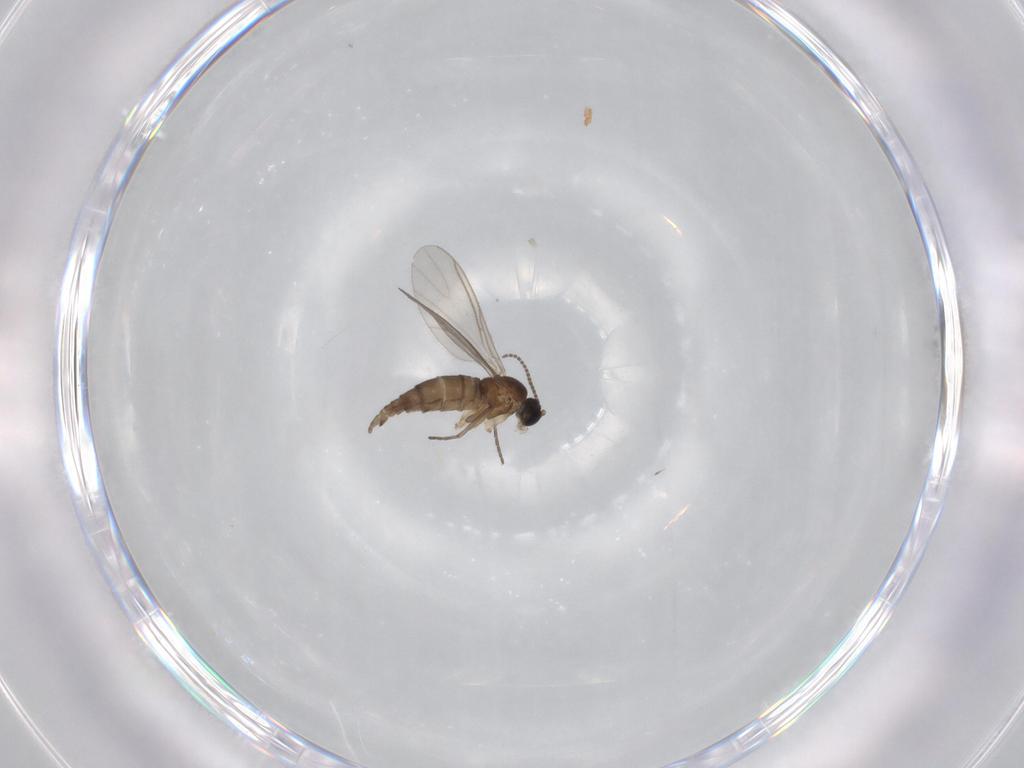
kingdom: Animalia
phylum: Arthropoda
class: Insecta
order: Diptera
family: Sciaridae
